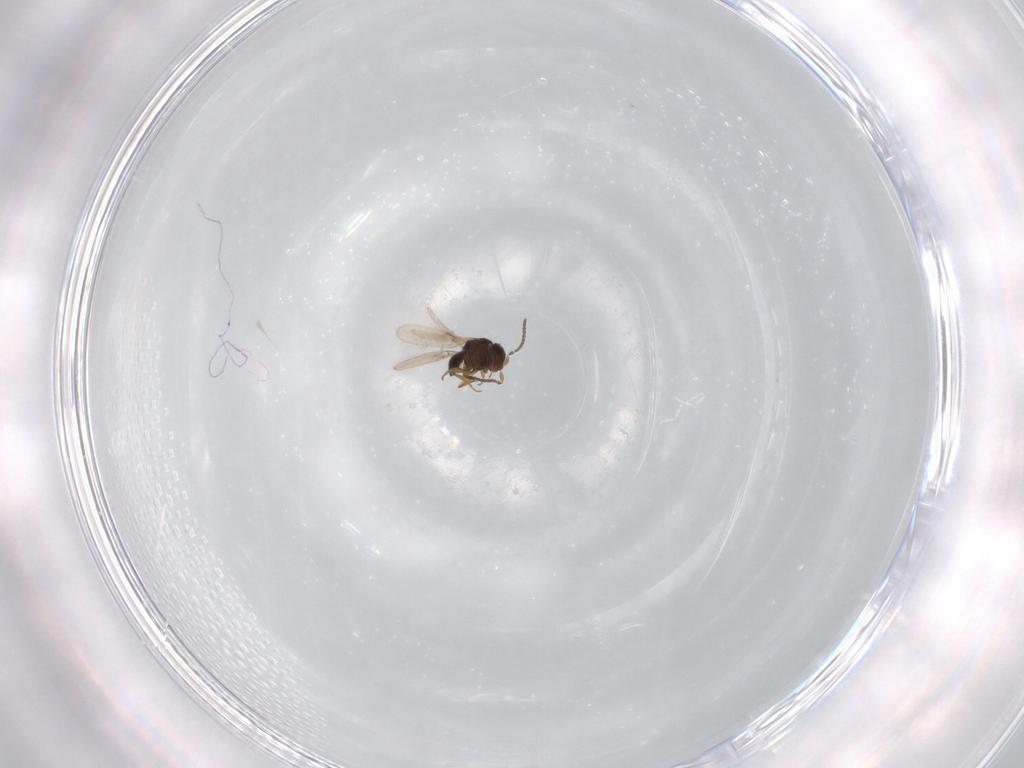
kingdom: Animalia
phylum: Arthropoda
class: Insecta
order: Hymenoptera
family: Scelionidae
